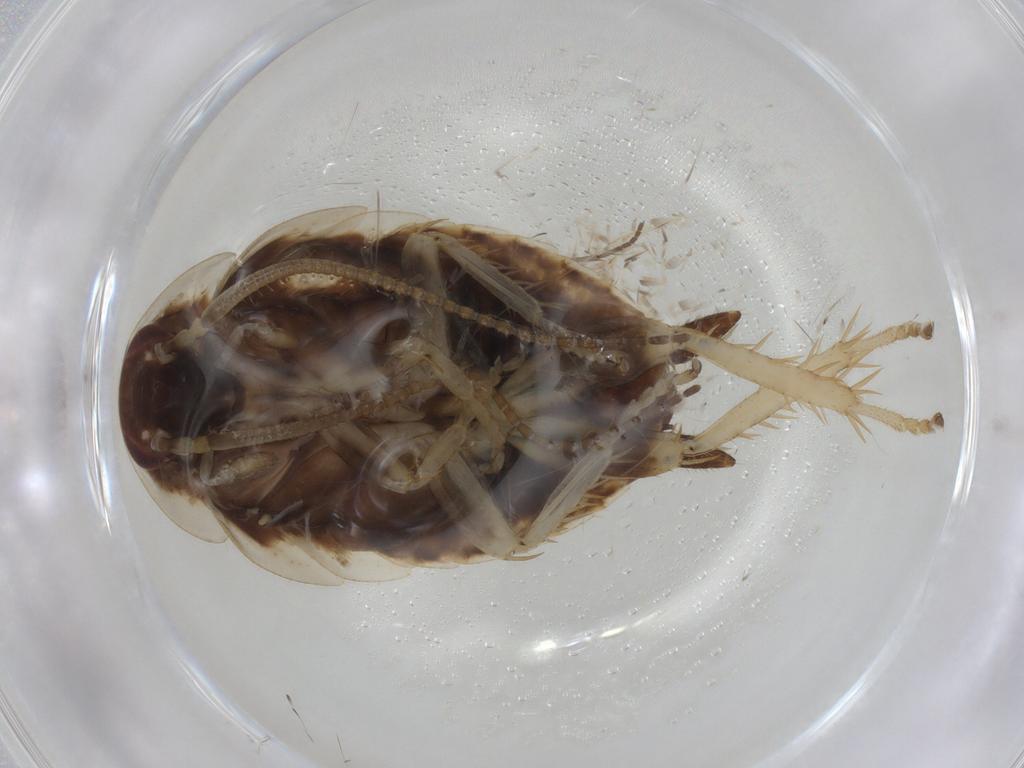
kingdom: Animalia
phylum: Arthropoda
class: Insecta
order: Blattodea
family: Ectobiidae
